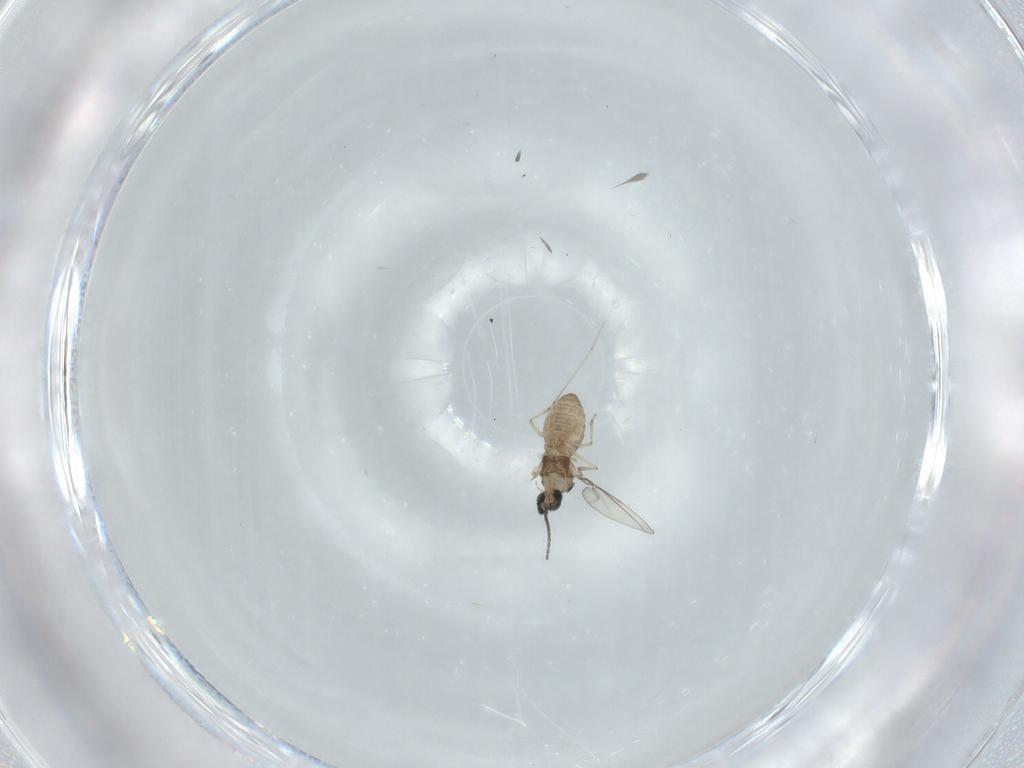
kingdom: Animalia
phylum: Arthropoda
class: Insecta
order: Diptera
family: Cecidomyiidae
